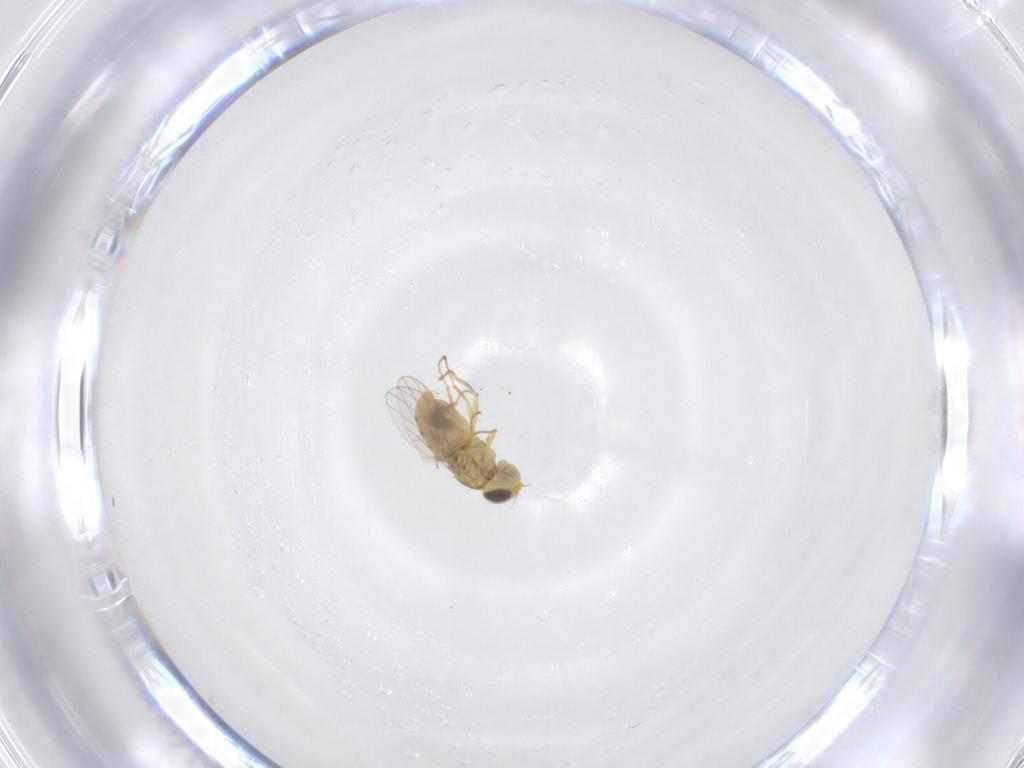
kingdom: Animalia
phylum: Arthropoda
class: Insecta
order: Diptera
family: Chyromyidae
